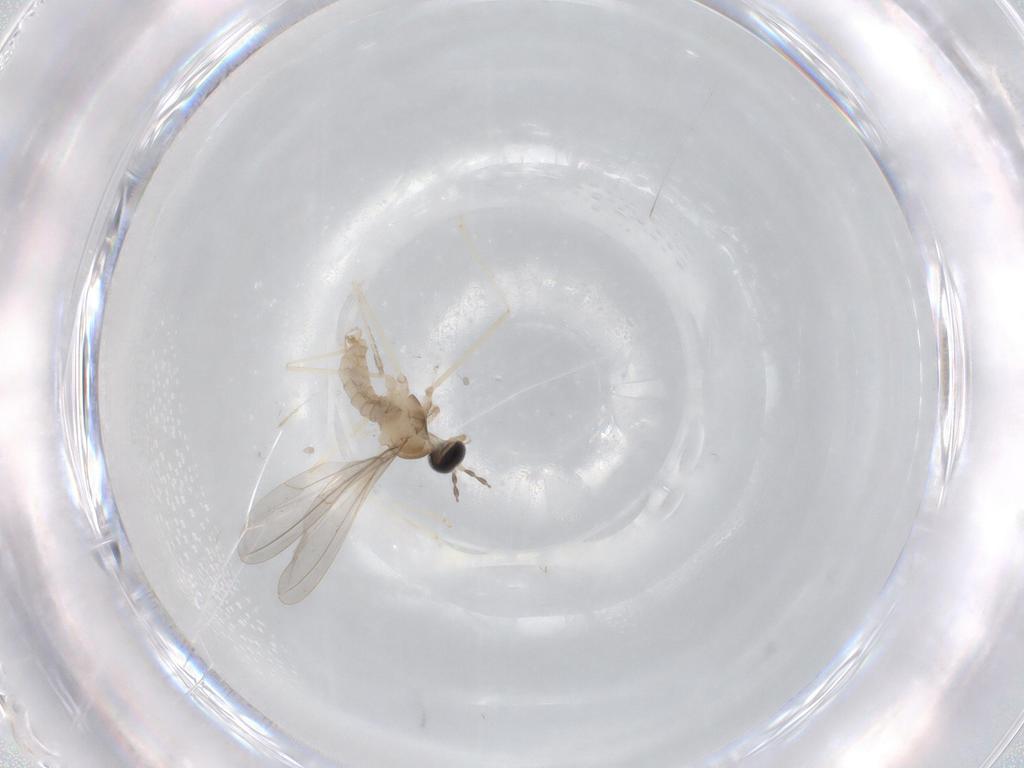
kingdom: Animalia
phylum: Arthropoda
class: Insecta
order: Diptera
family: Cecidomyiidae
